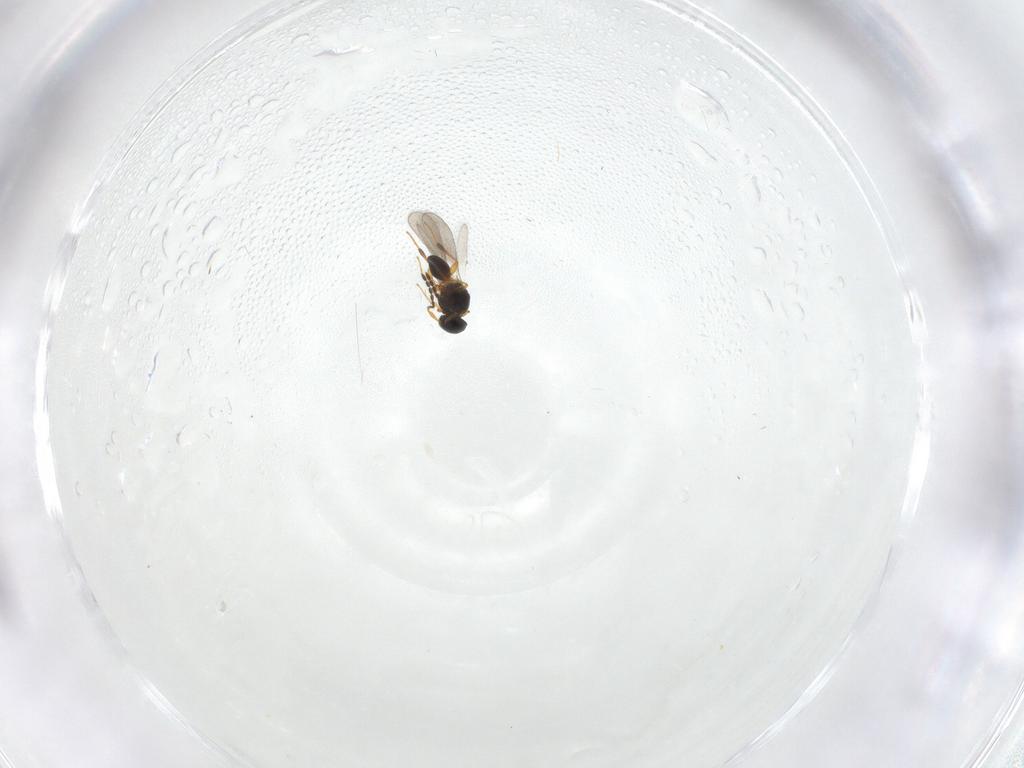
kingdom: Animalia
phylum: Arthropoda
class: Insecta
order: Hymenoptera
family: Platygastridae
